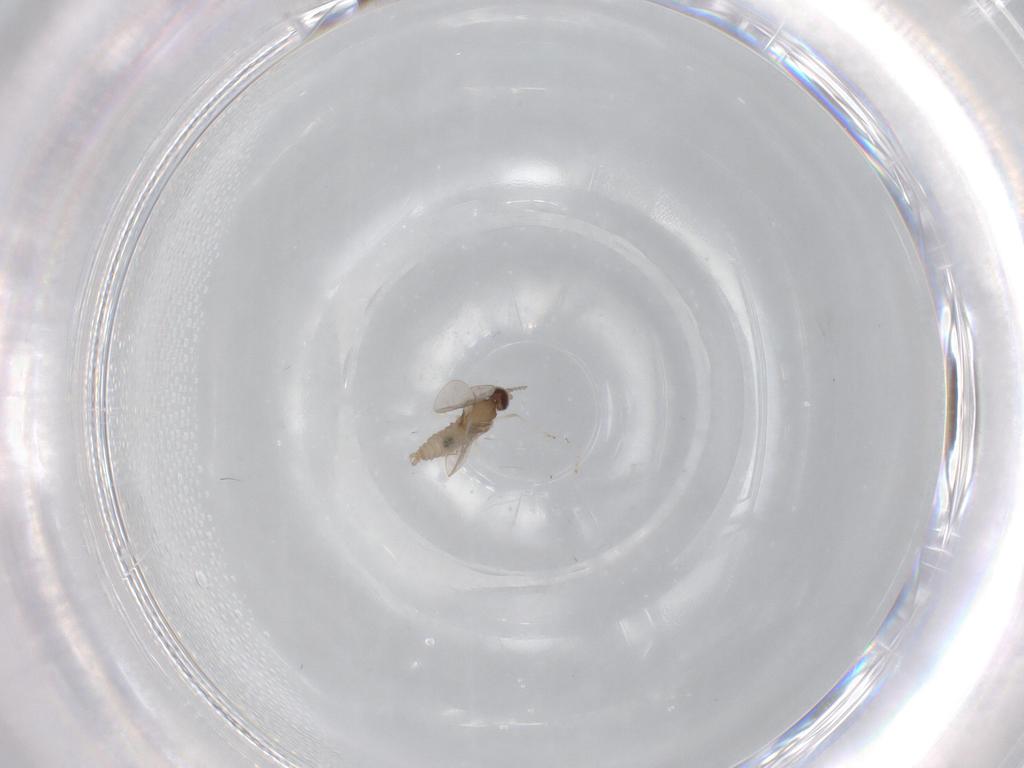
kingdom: Animalia
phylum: Arthropoda
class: Insecta
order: Diptera
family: Cecidomyiidae
